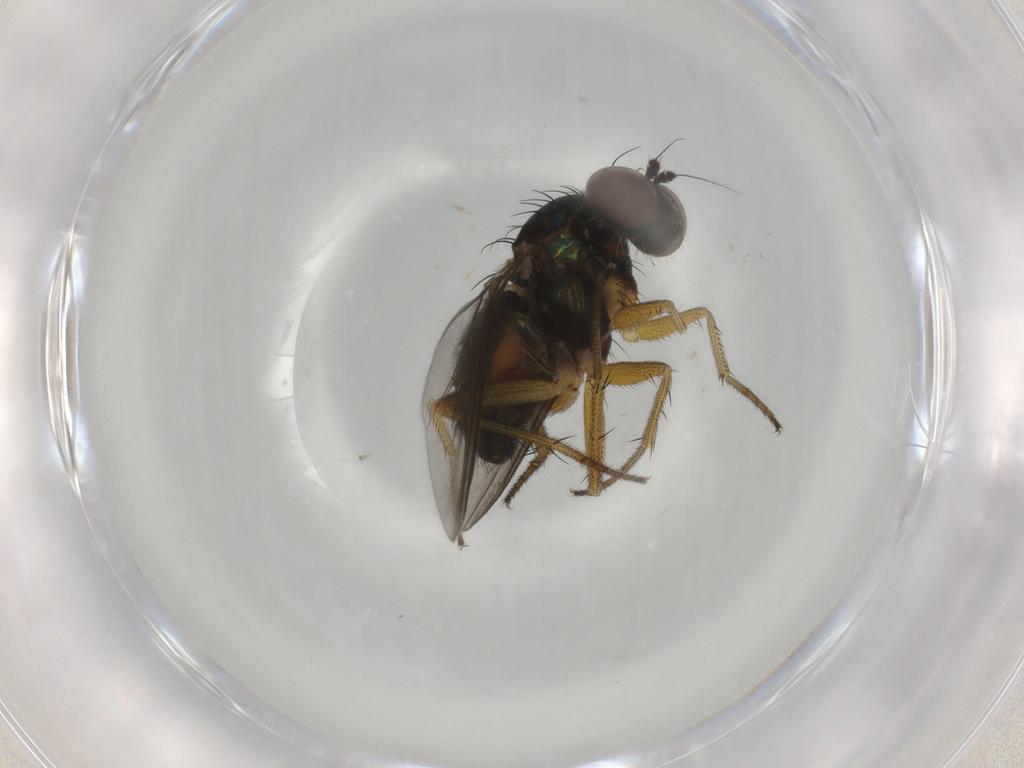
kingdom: Animalia
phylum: Arthropoda
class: Insecta
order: Diptera
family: Dolichopodidae
